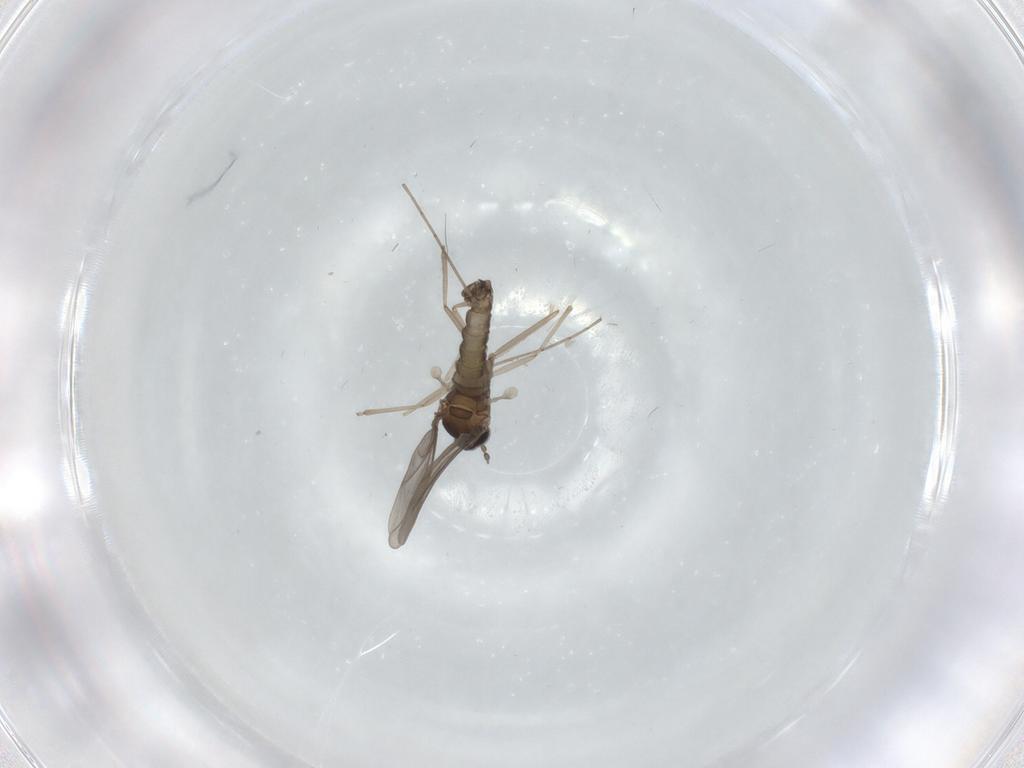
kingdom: Animalia
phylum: Arthropoda
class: Insecta
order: Diptera
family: Cecidomyiidae
